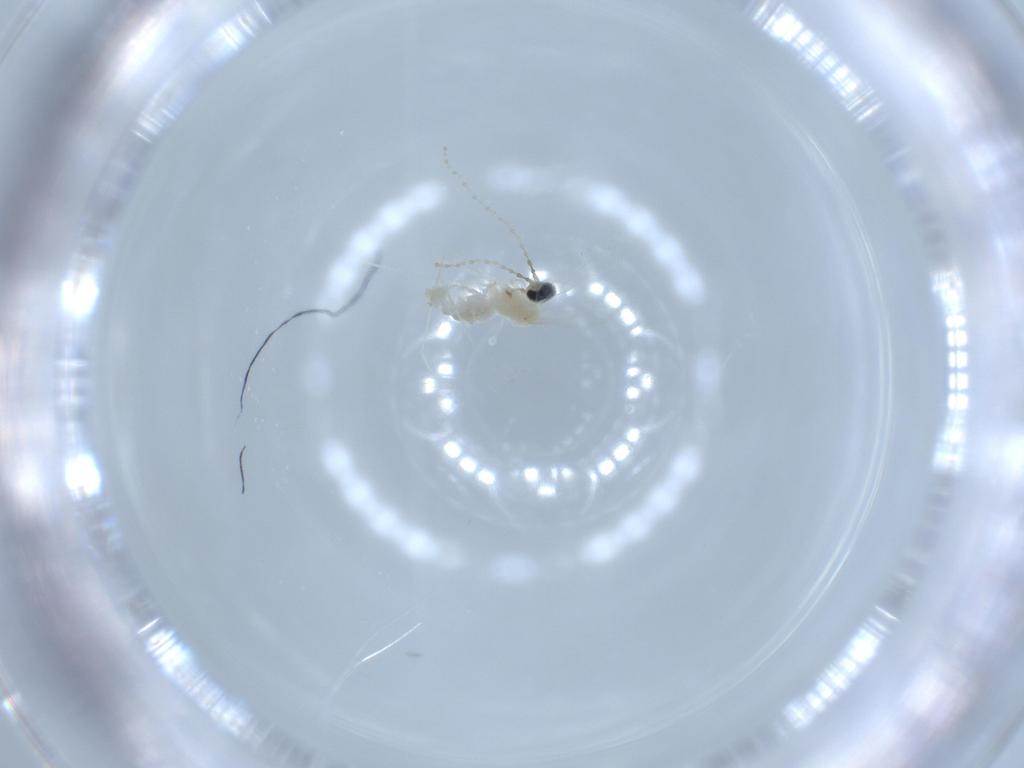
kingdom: Animalia
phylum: Arthropoda
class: Insecta
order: Diptera
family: Cecidomyiidae
